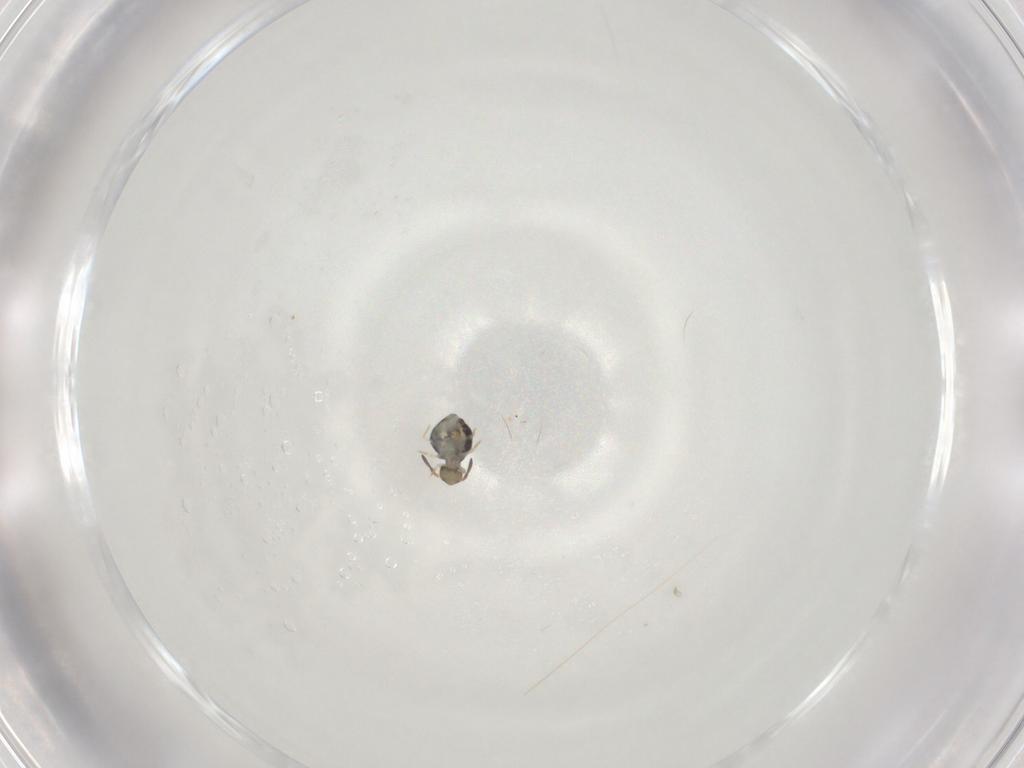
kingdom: Animalia
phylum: Arthropoda
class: Collembola
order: Symphypleona
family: Katiannidae
